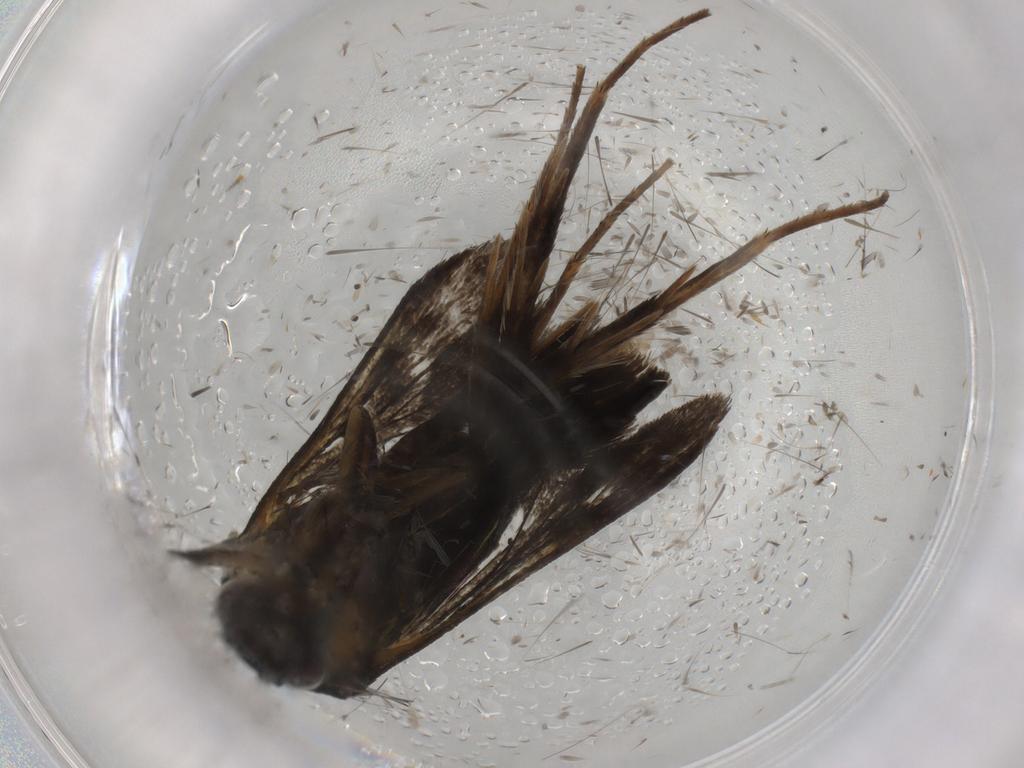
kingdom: Animalia
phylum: Arthropoda
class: Insecta
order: Lepidoptera
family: Sesiidae
